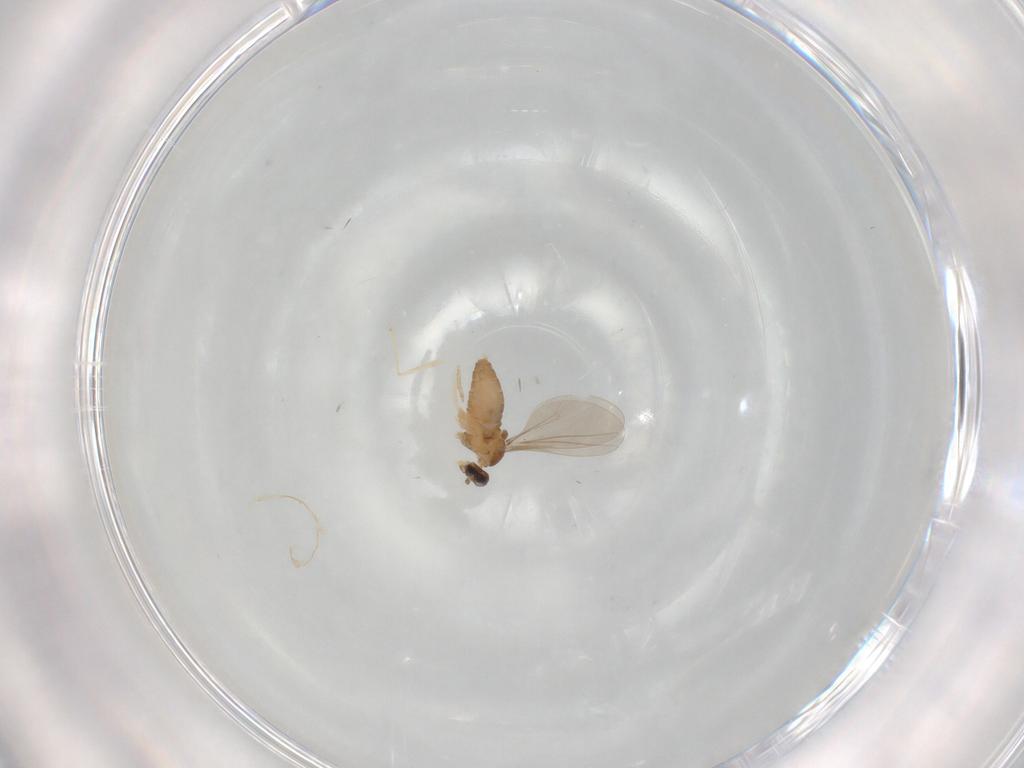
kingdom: Animalia
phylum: Arthropoda
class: Insecta
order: Diptera
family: Cecidomyiidae
